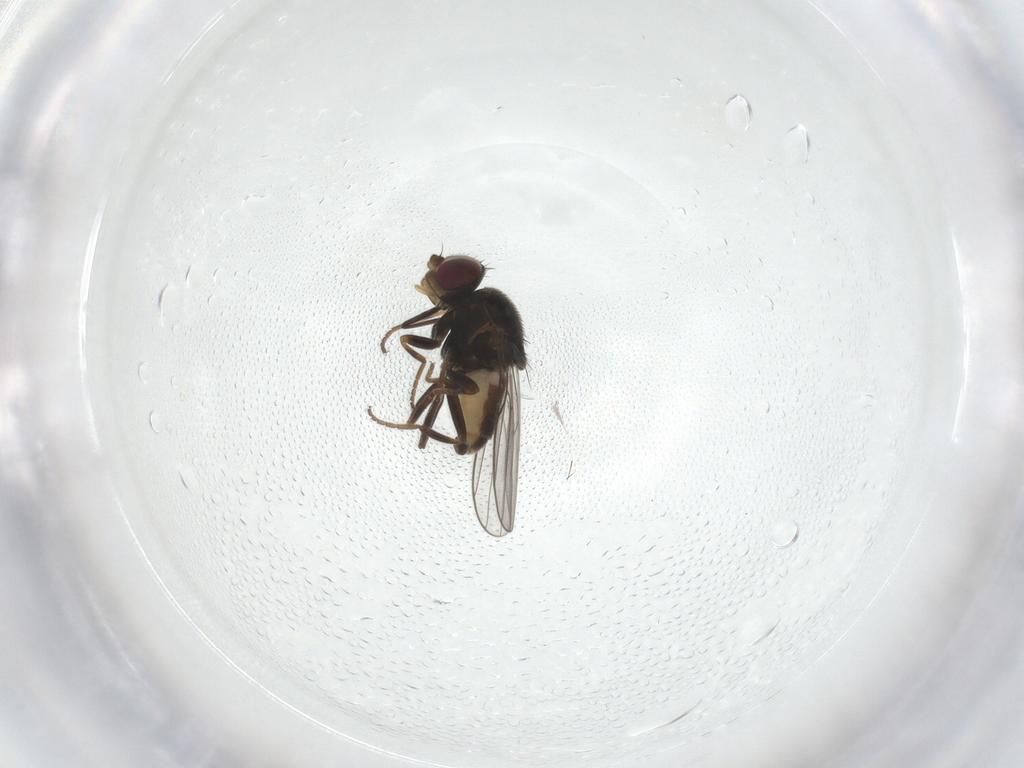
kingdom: Animalia
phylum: Arthropoda
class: Insecta
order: Diptera
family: Chloropidae
